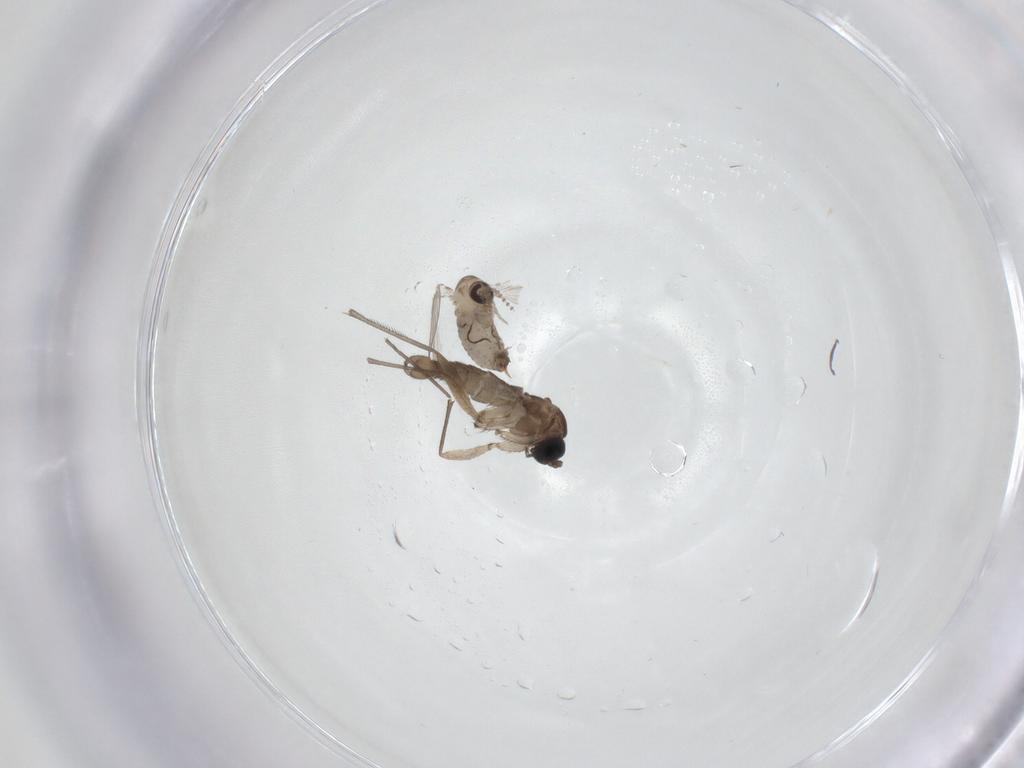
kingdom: Animalia
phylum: Arthropoda
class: Insecta
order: Diptera
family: Psychodidae
